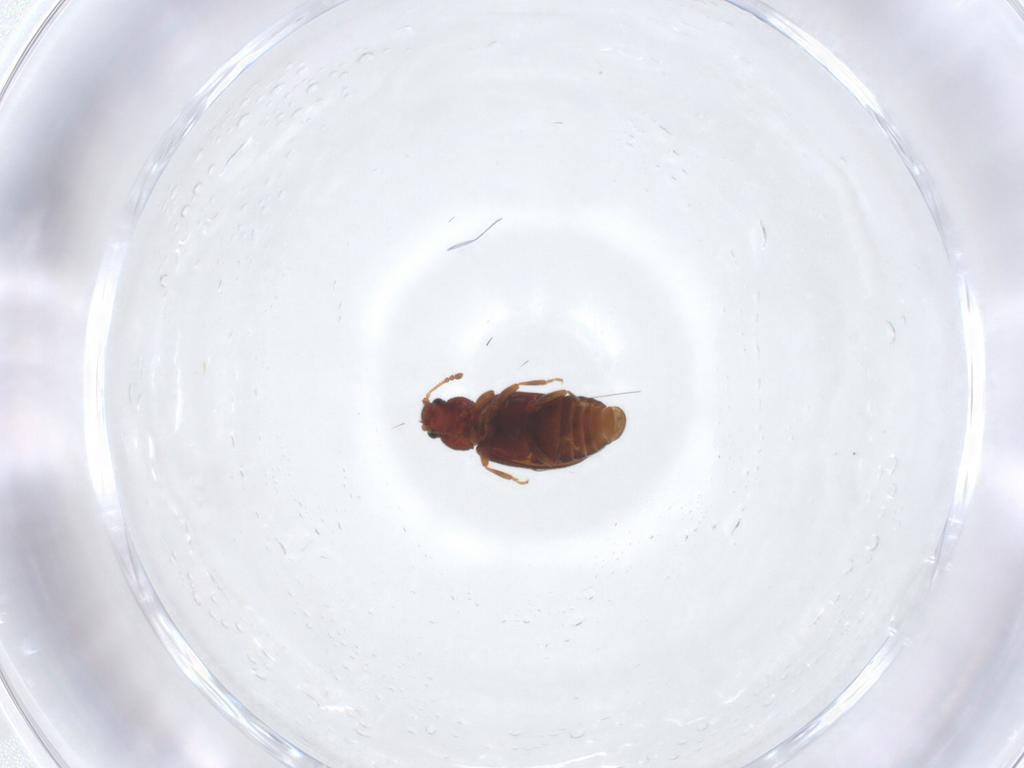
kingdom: Animalia
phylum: Arthropoda
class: Insecta
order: Coleoptera
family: Latridiidae
